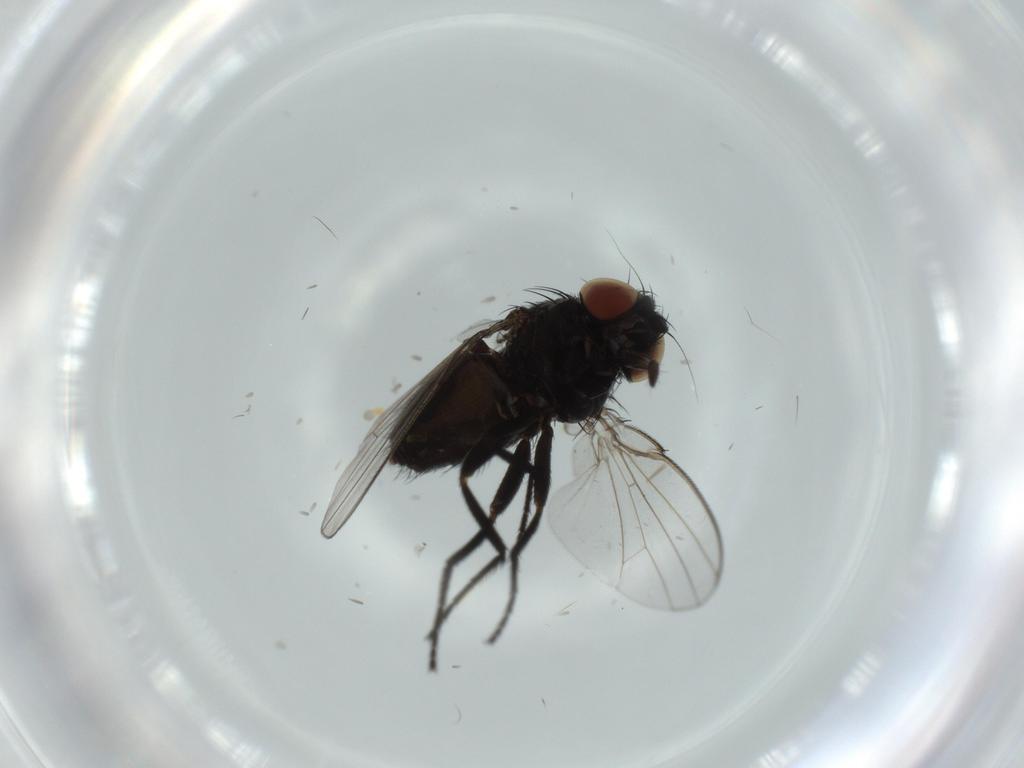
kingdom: Animalia
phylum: Arthropoda
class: Insecta
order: Diptera
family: Milichiidae
